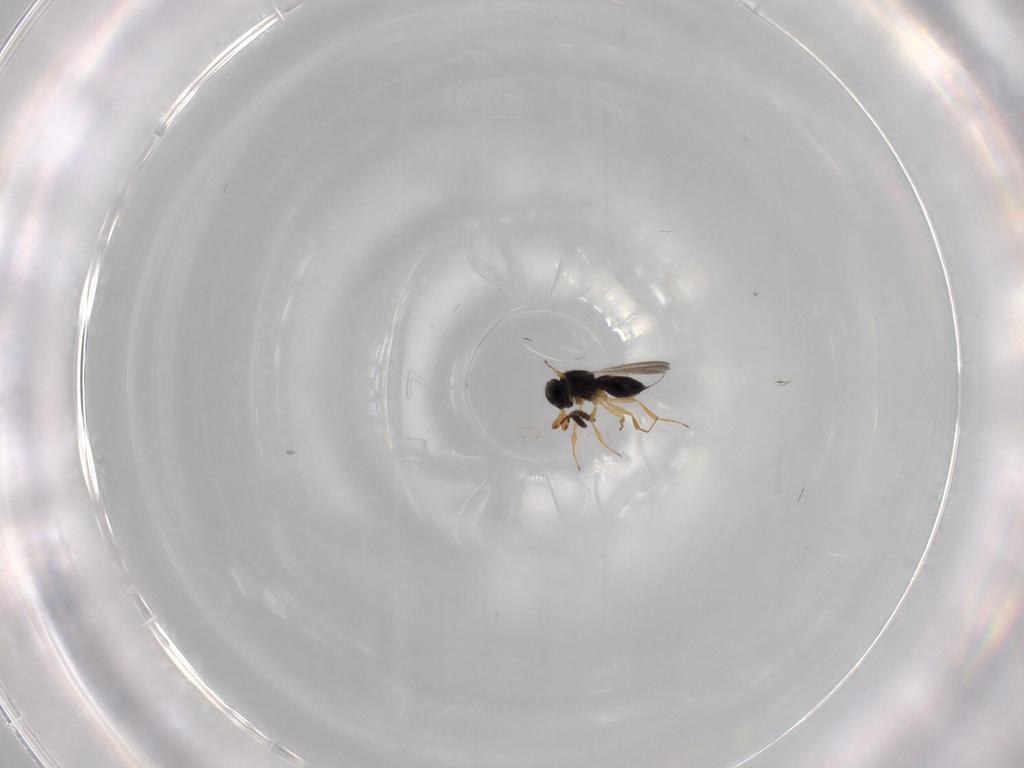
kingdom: Animalia
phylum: Arthropoda
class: Insecta
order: Hymenoptera
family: Scelionidae
